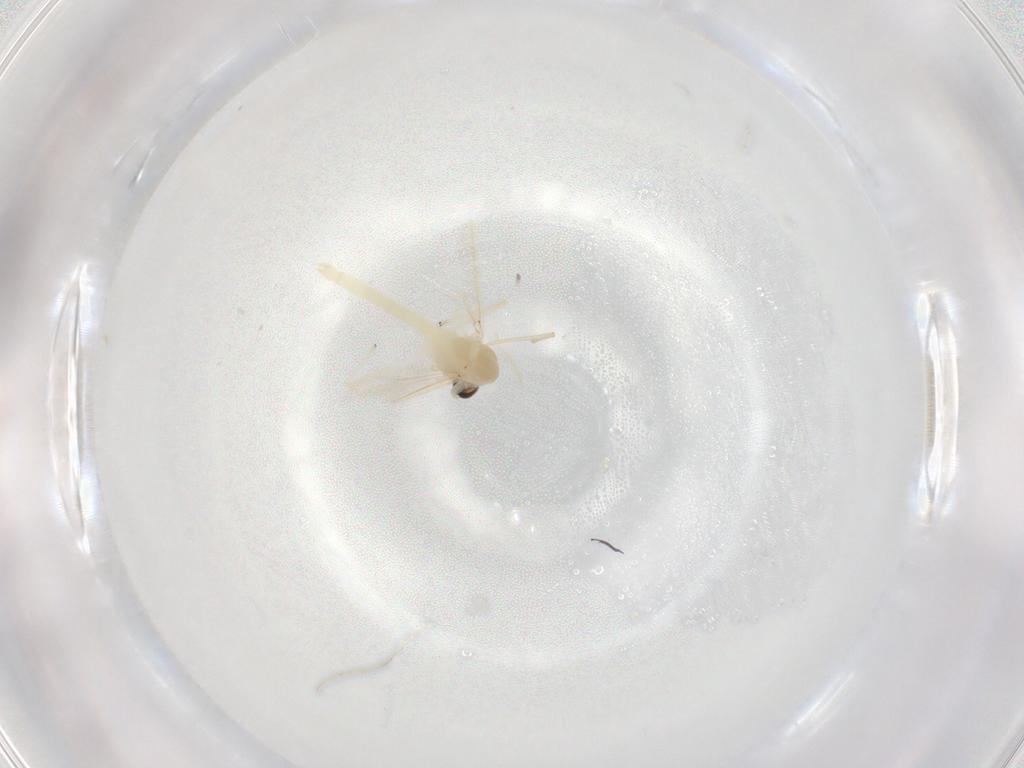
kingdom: Animalia
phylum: Arthropoda
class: Insecta
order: Diptera
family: Chironomidae
